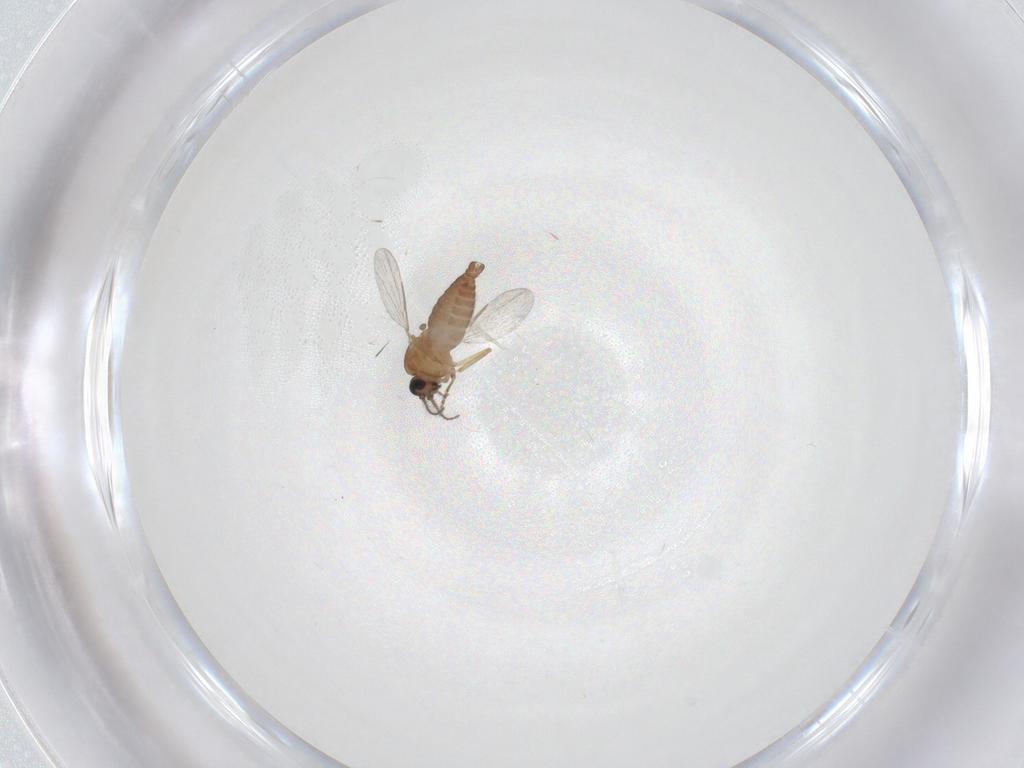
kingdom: Animalia
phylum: Arthropoda
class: Insecta
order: Diptera
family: Ceratopogonidae
